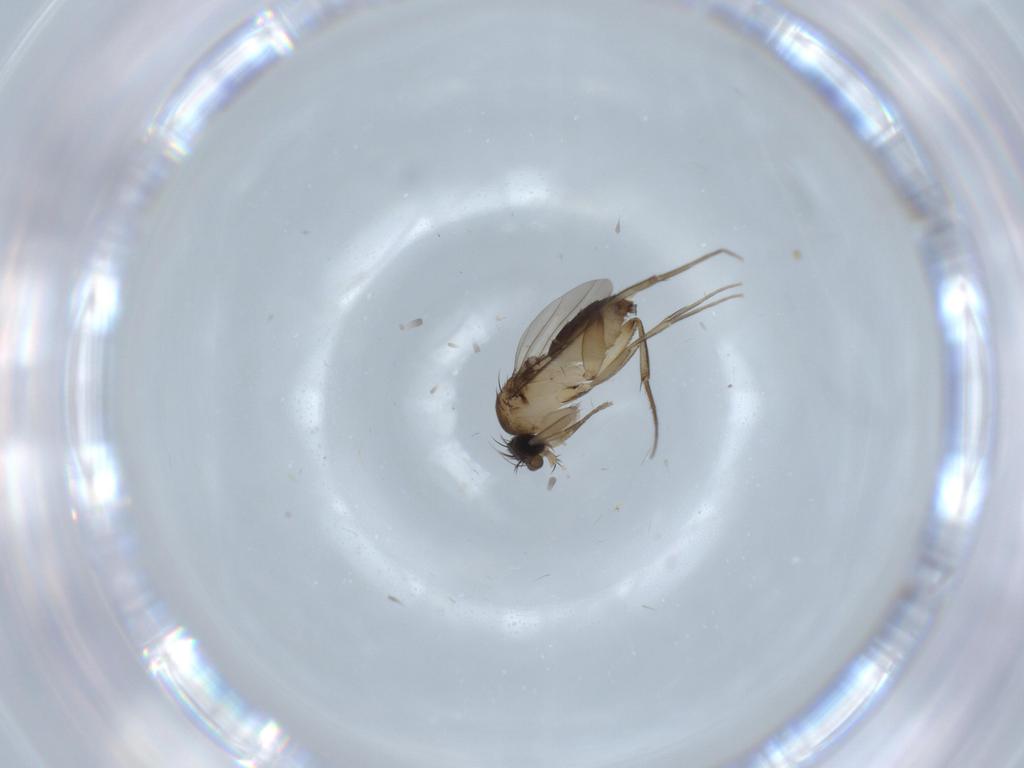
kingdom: Animalia
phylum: Arthropoda
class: Insecta
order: Diptera
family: Phoridae
